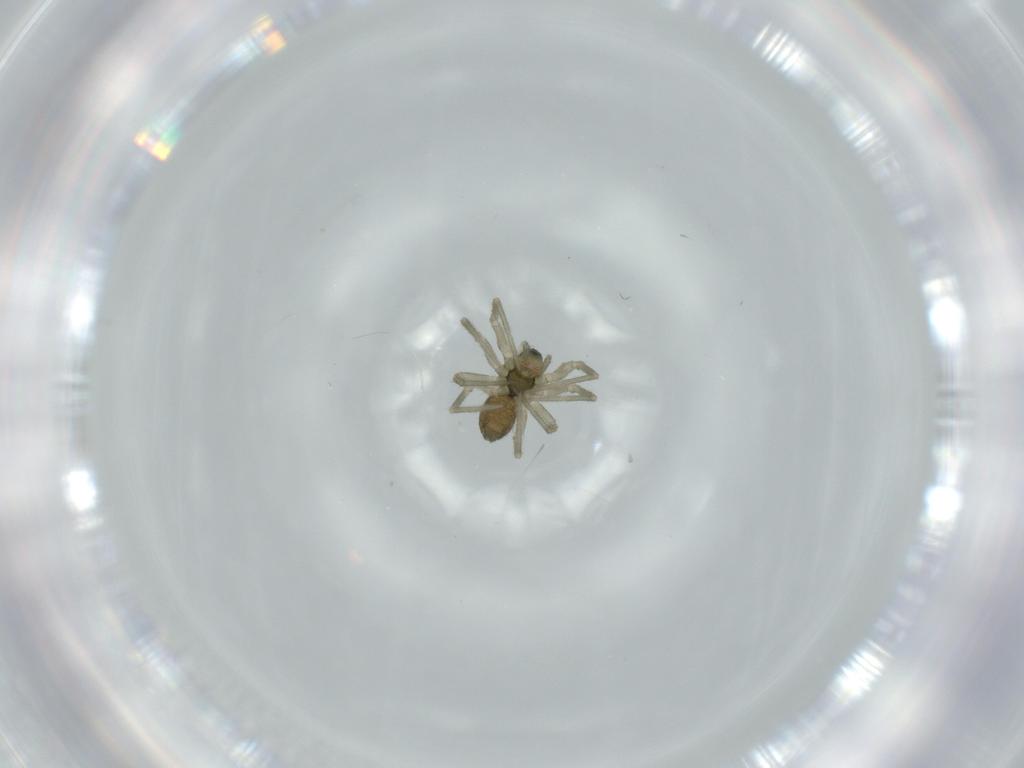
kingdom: Animalia
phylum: Arthropoda
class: Arachnida
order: Araneae
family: Linyphiidae
